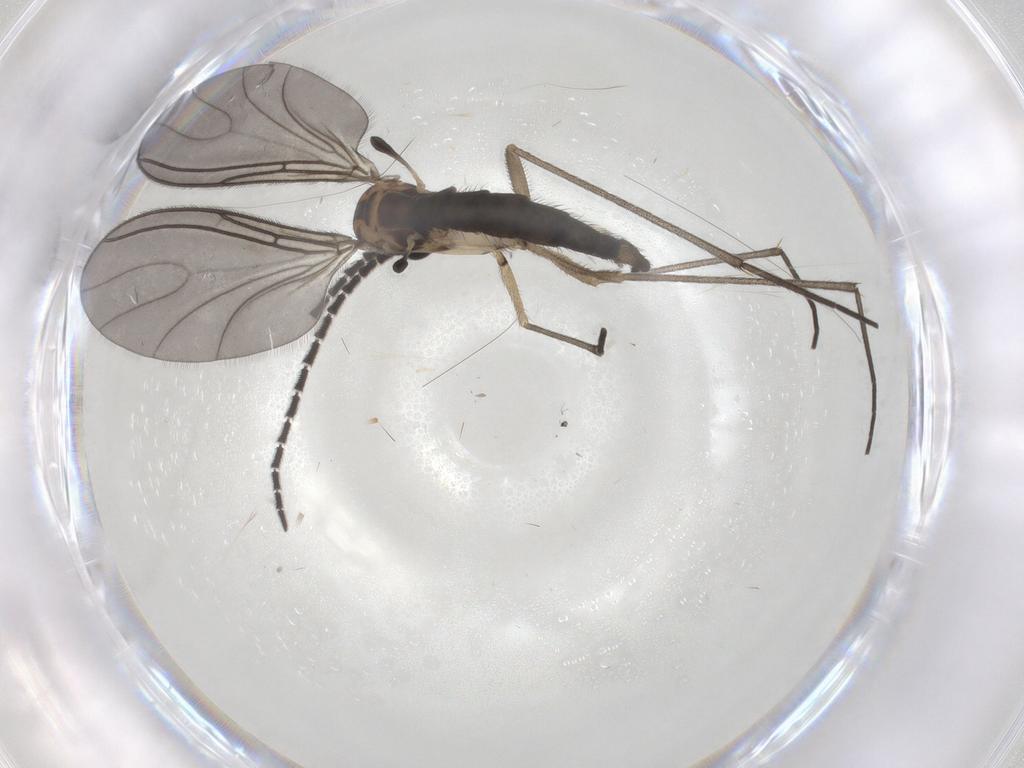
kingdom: Animalia
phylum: Arthropoda
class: Insecta
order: Diptera
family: Sciaridae
